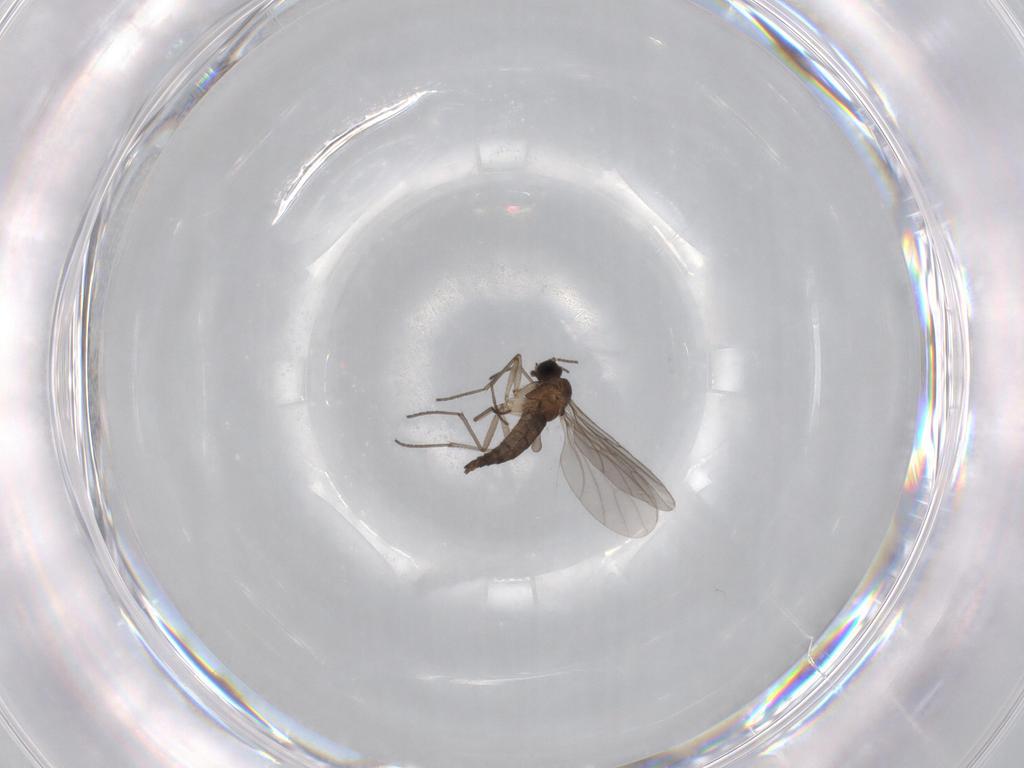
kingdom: Animalia
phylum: Arthropoda
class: Insecta
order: Diptera
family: Sciaridae
